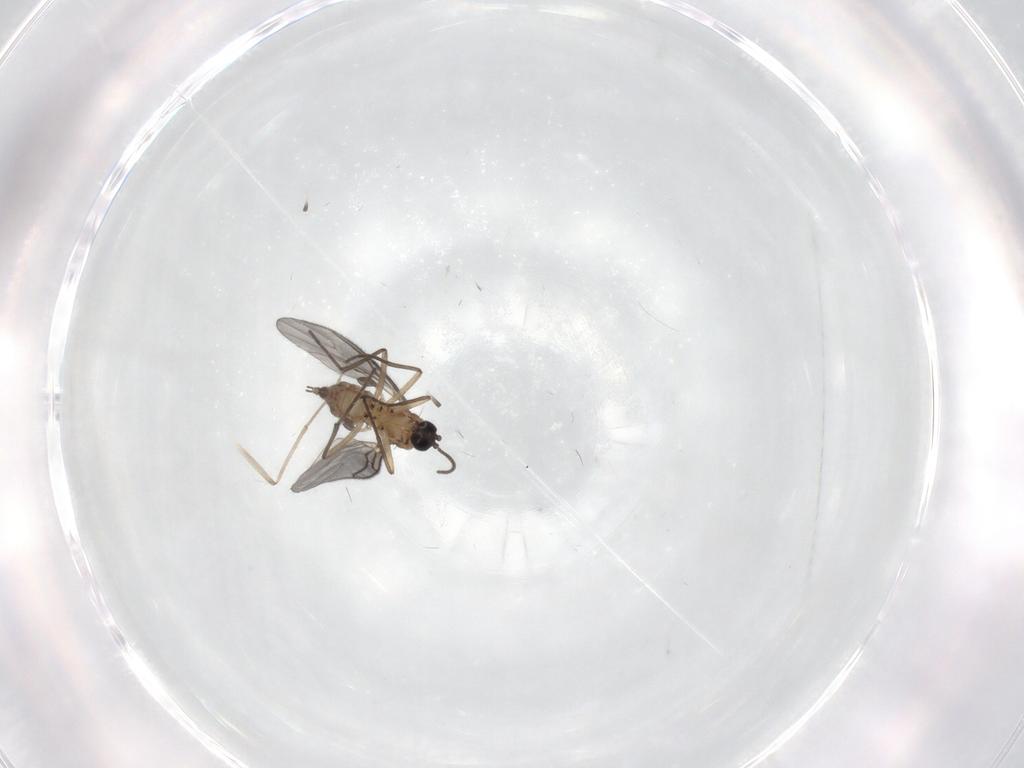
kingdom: Animalia
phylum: Arthropoda
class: Insecta
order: Diptera
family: Sciaridae
